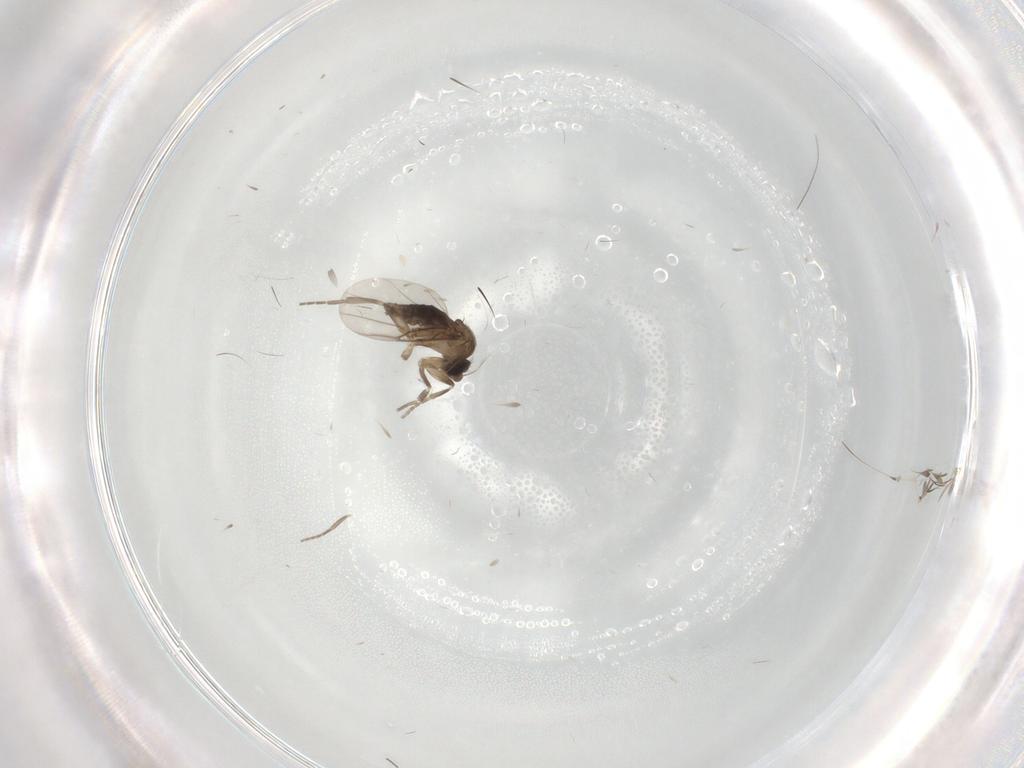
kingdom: Animalia
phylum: Arthropoda
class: Insecta
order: Diptera
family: Phoridae
